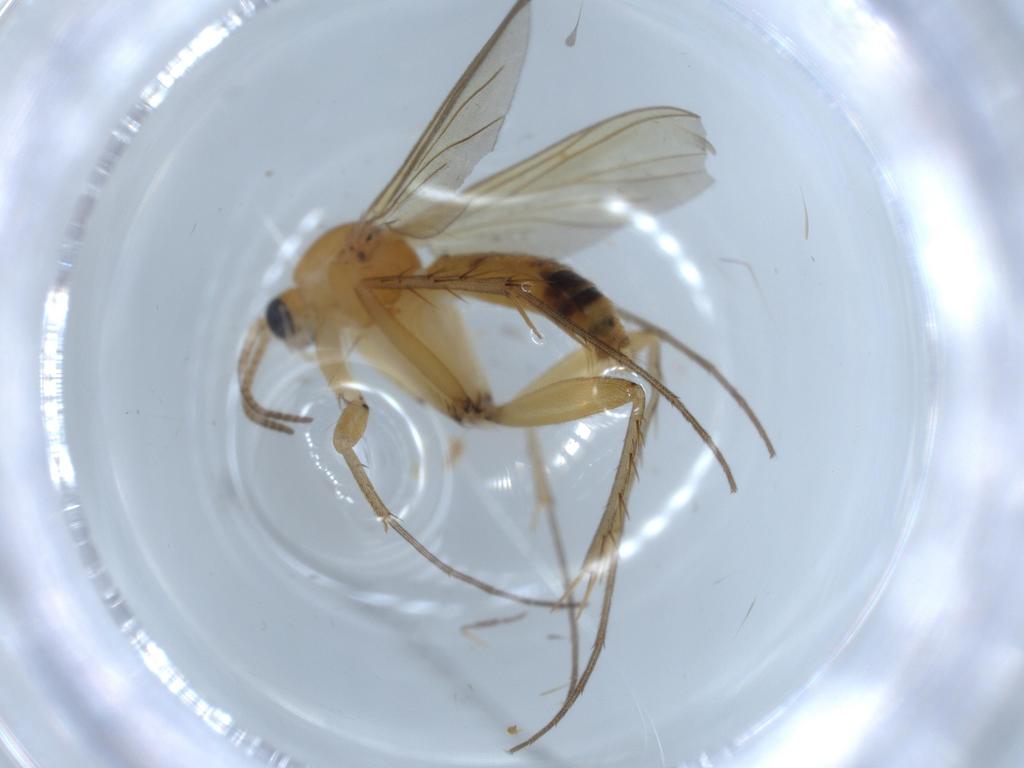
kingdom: Animalia
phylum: Arthropoda
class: Insecta
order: Diptera
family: Mycetophilidae
